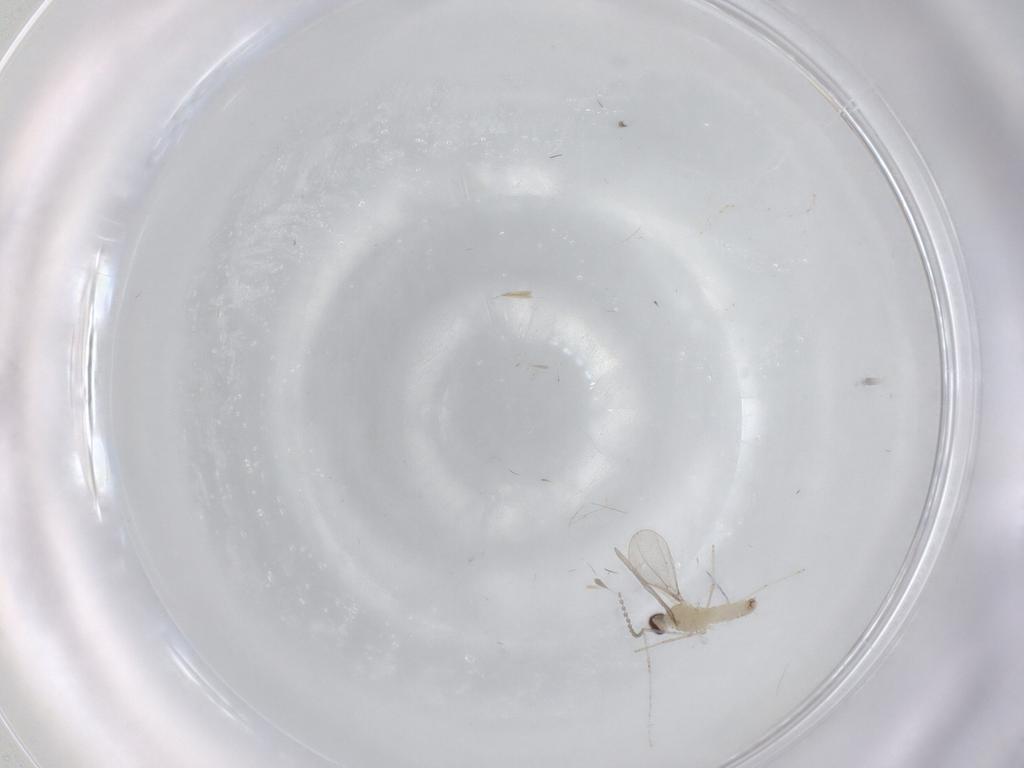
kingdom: Animalia
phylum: Arthropoda
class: Insecta
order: Diptera
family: Cecidomyiidae
